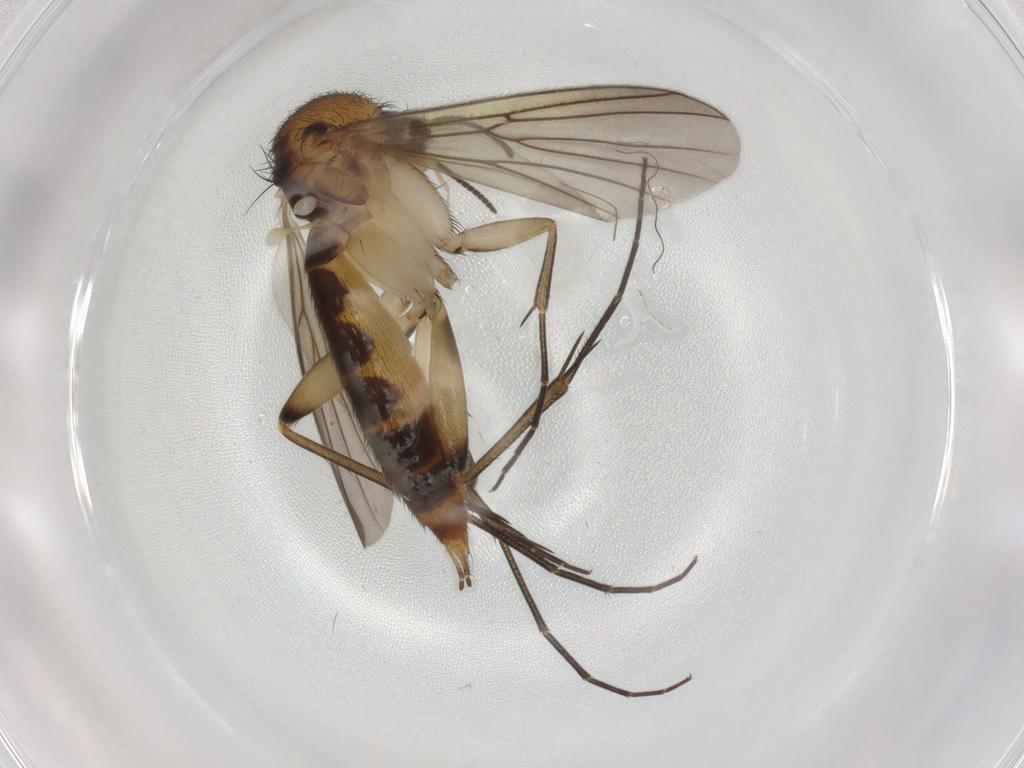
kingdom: Animalia
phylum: Arthropoda
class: Insecta
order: Diptera
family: Mycetophilidae
